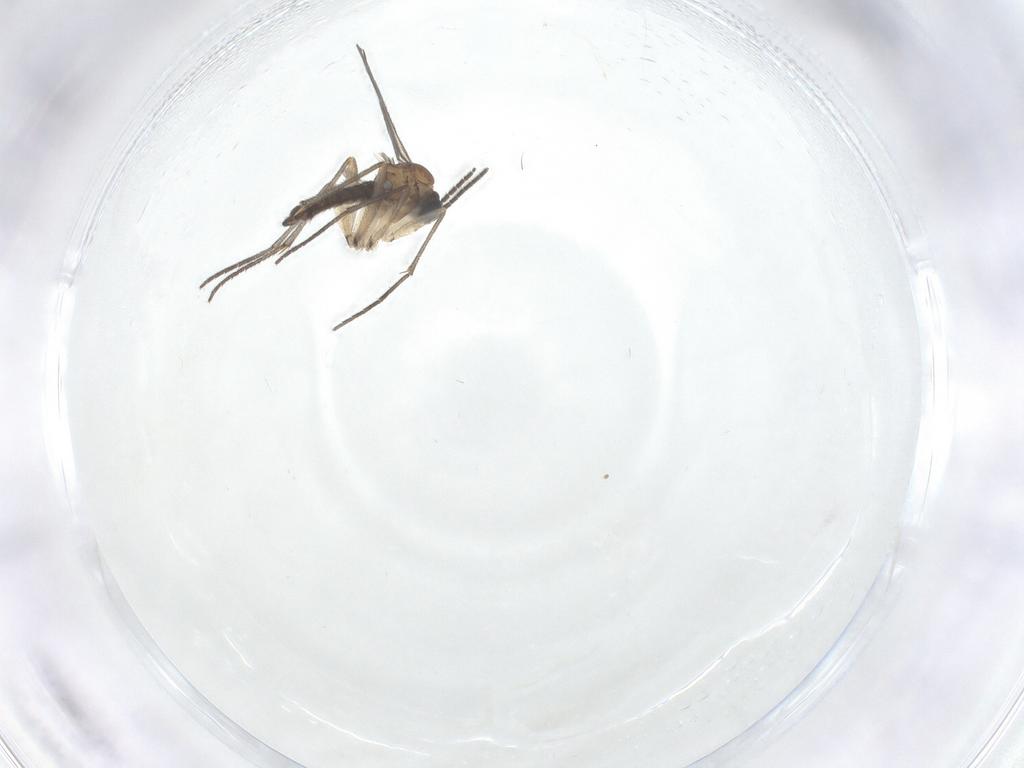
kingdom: Animalia
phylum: Arthropoda
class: Insecta
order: Diptera
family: Sciaridae
